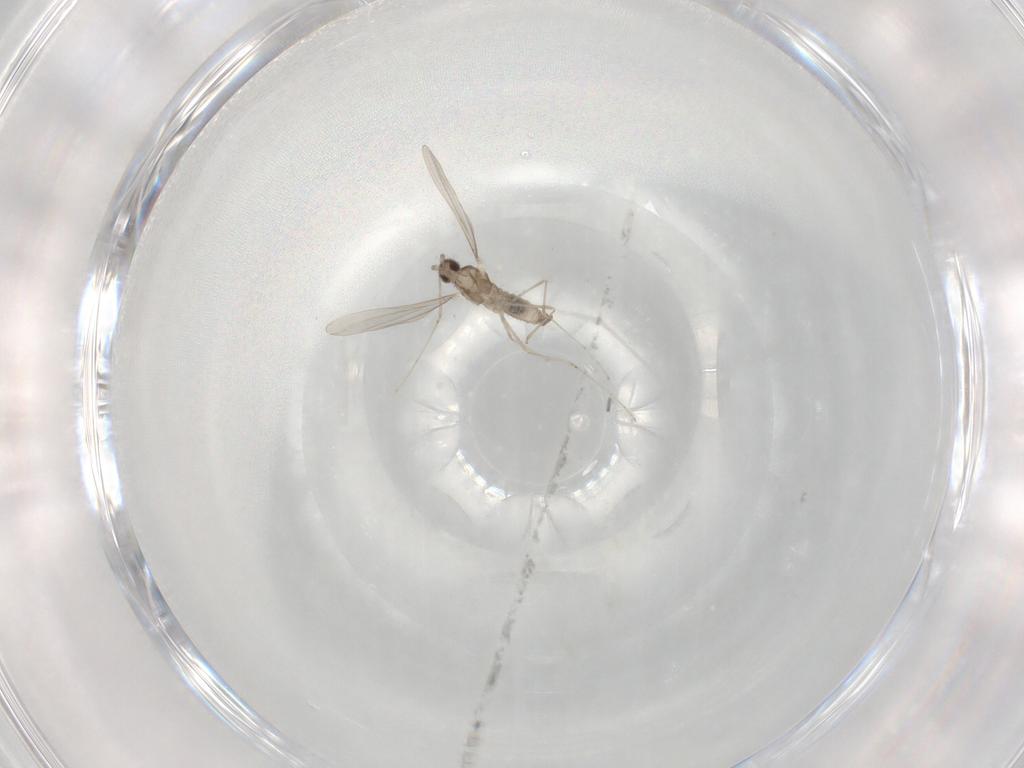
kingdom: Animalia
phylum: Arthropoda
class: Insecta
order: Diptera
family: Cecidomyiidae
